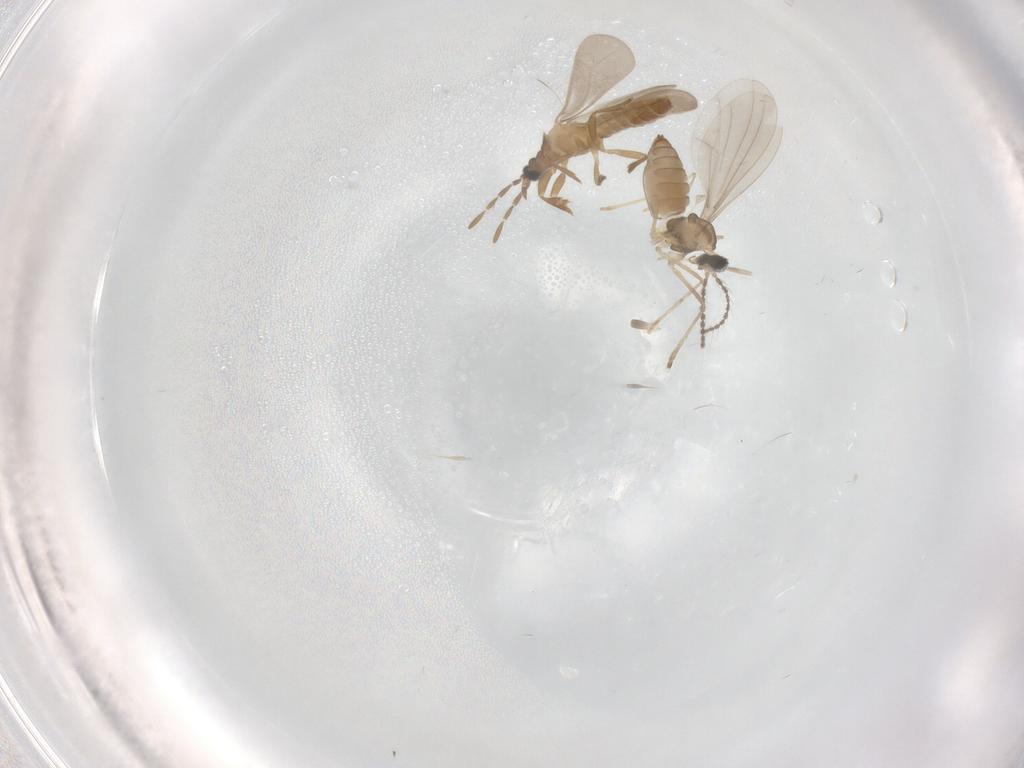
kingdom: Animalia
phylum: Arthropoda
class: Insecta
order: Diptera
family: Cecidomyiidae
